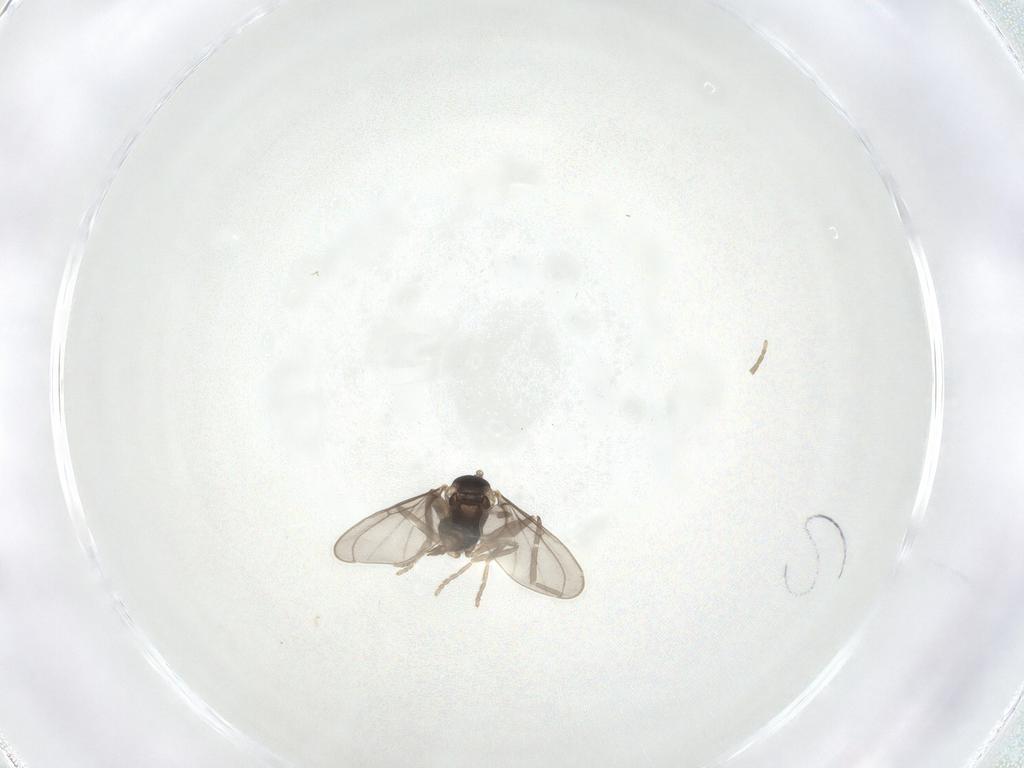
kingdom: Animalia
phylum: Arthropoda
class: Insecta
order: Diptera
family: Cecidomyiidae
